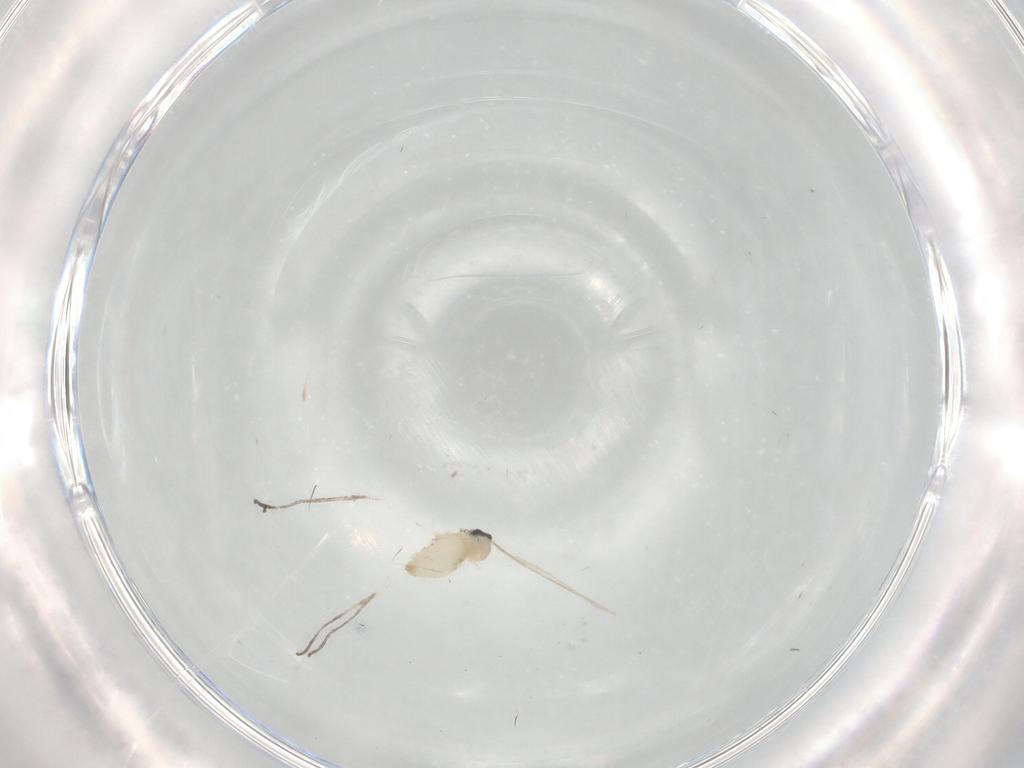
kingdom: Animalia
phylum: Arthropoda
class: Insecta
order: Diptera
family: Cecidomyiidae
